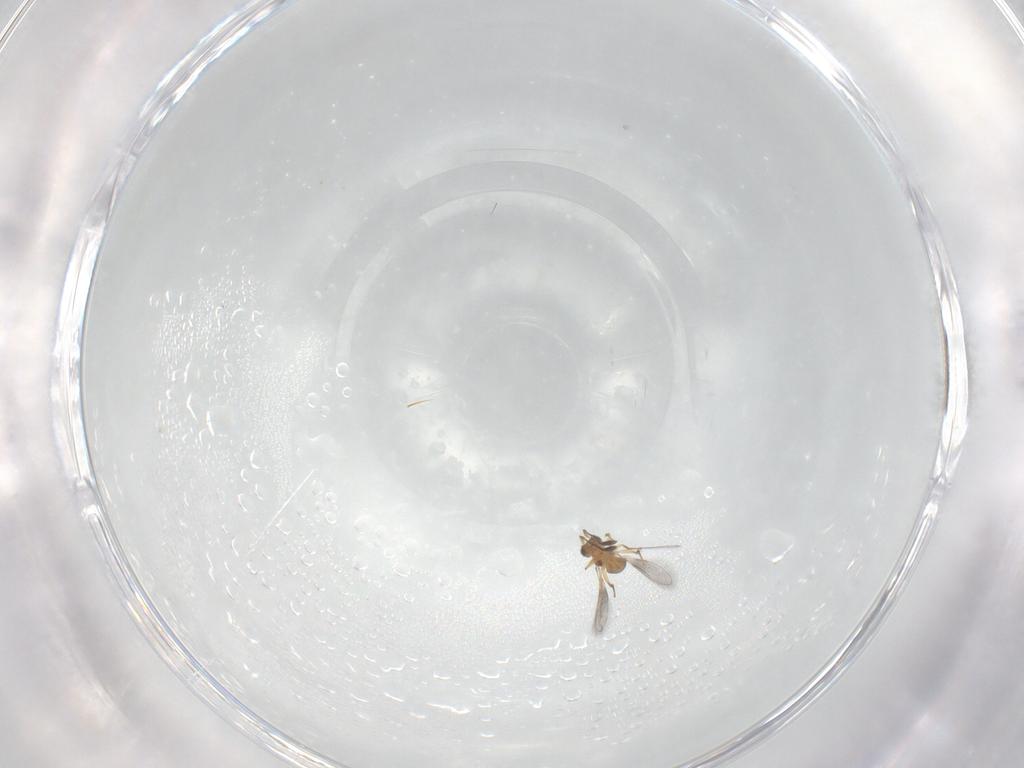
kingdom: Animalia
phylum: Arthropoda
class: Insecta
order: Hymenoptera
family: Mymaridae
